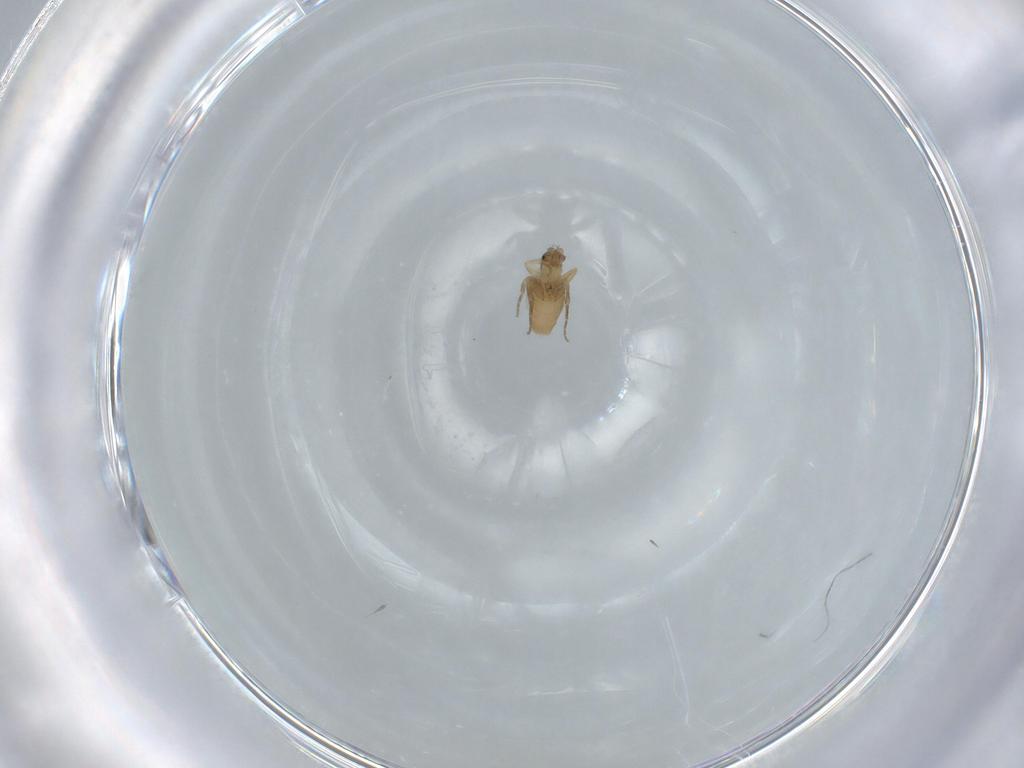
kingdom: Animalia
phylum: Arthropoda
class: Insecta
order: Diptera
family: Phoridae
